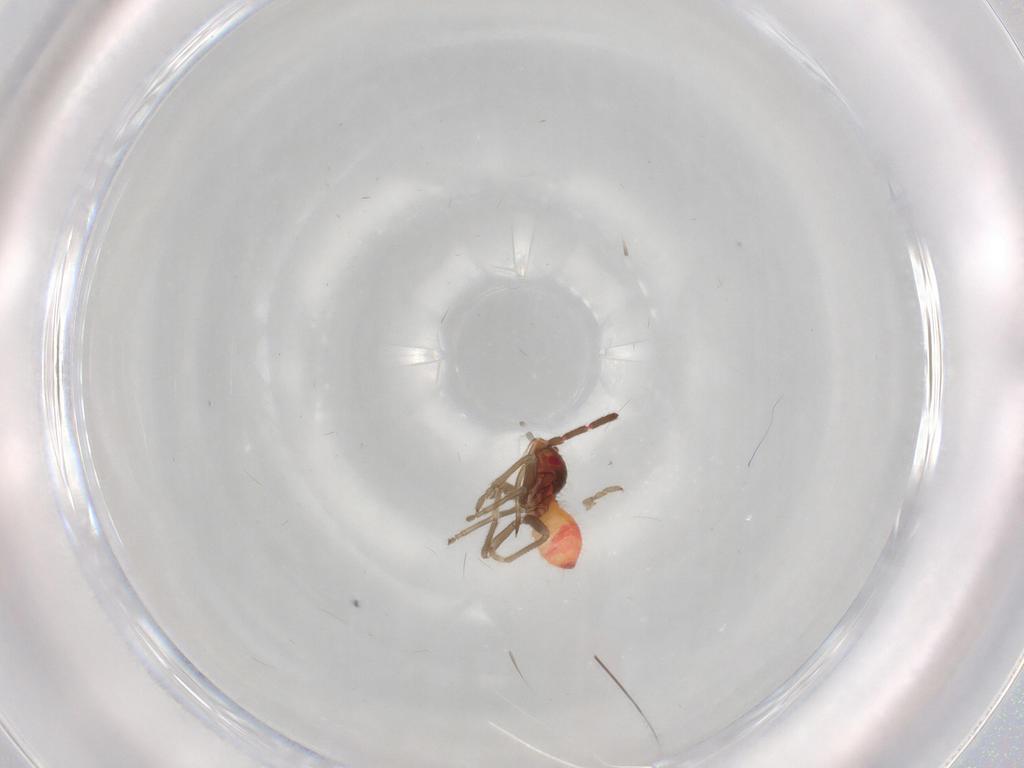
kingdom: Animalia
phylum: Arthropoda
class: Insecta
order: Hemiptera
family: Rhyparochromidae
